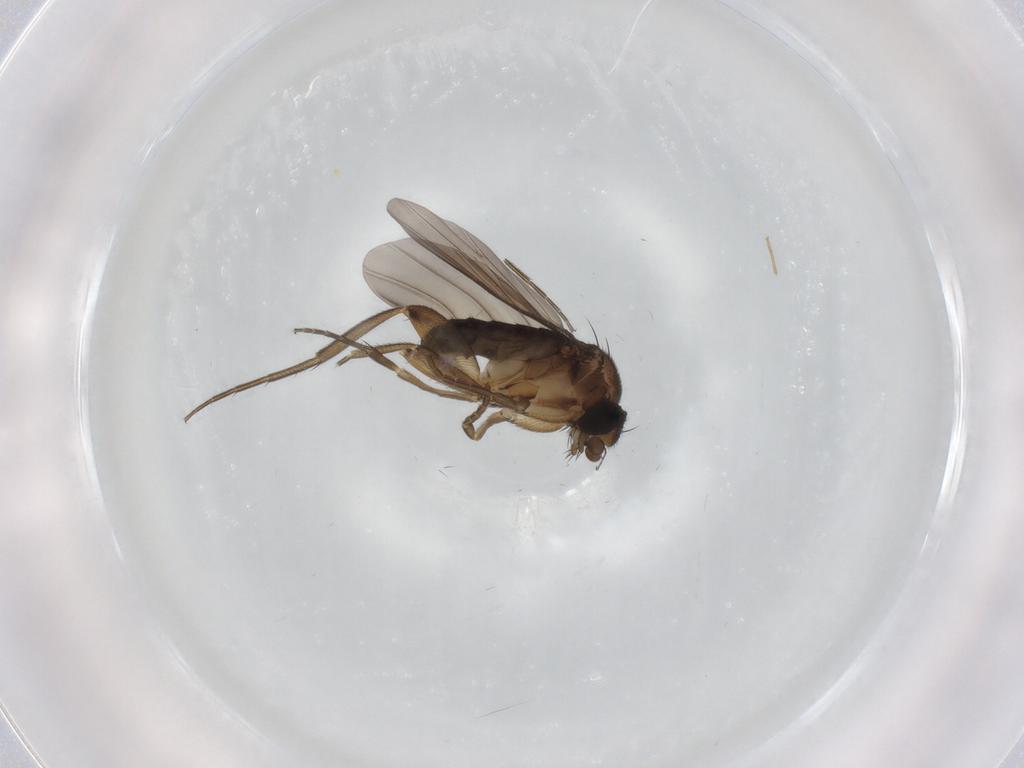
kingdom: Animalia
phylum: Arthropoda
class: Insecta
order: Diptera
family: Phoridae
